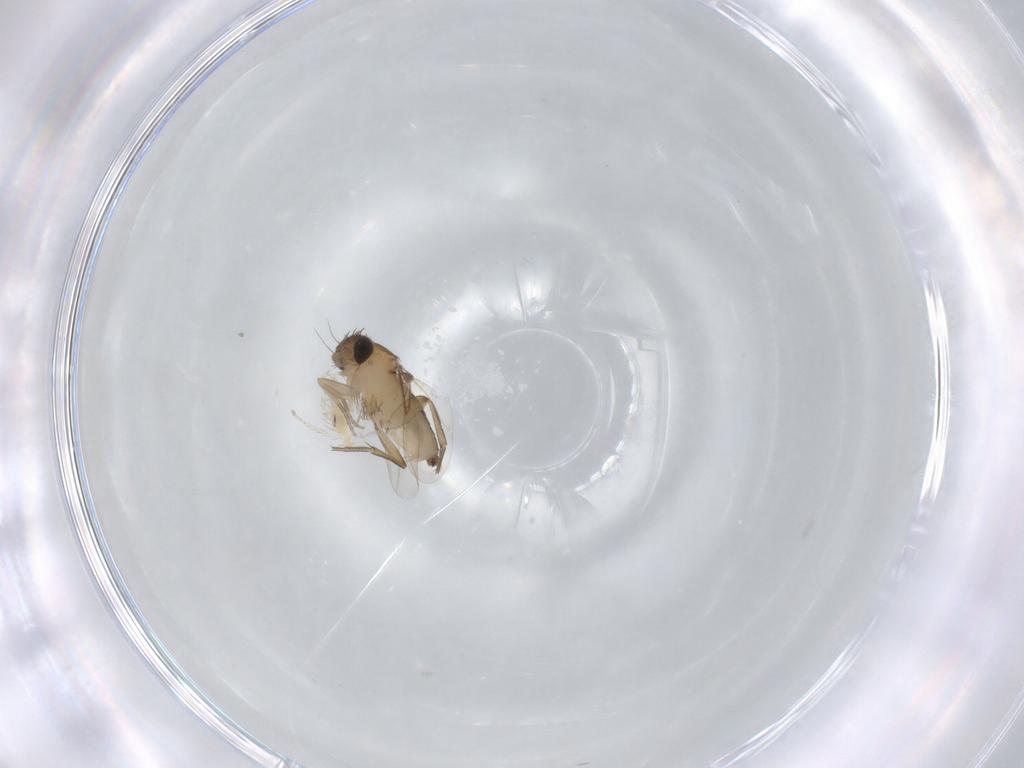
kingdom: Animalia
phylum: Arthropoda
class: Insecta
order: Diptera
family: Phoridae
